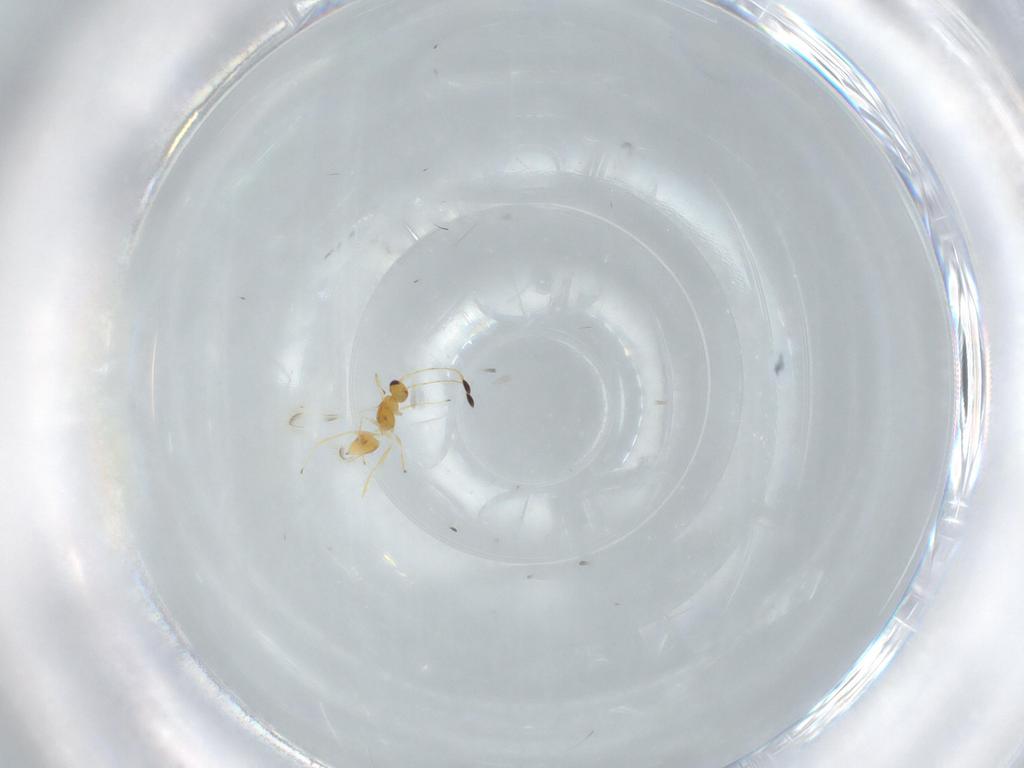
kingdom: Animalia
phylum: Arthropoda
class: Insecta
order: Hymenoptera
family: Mymaridae
